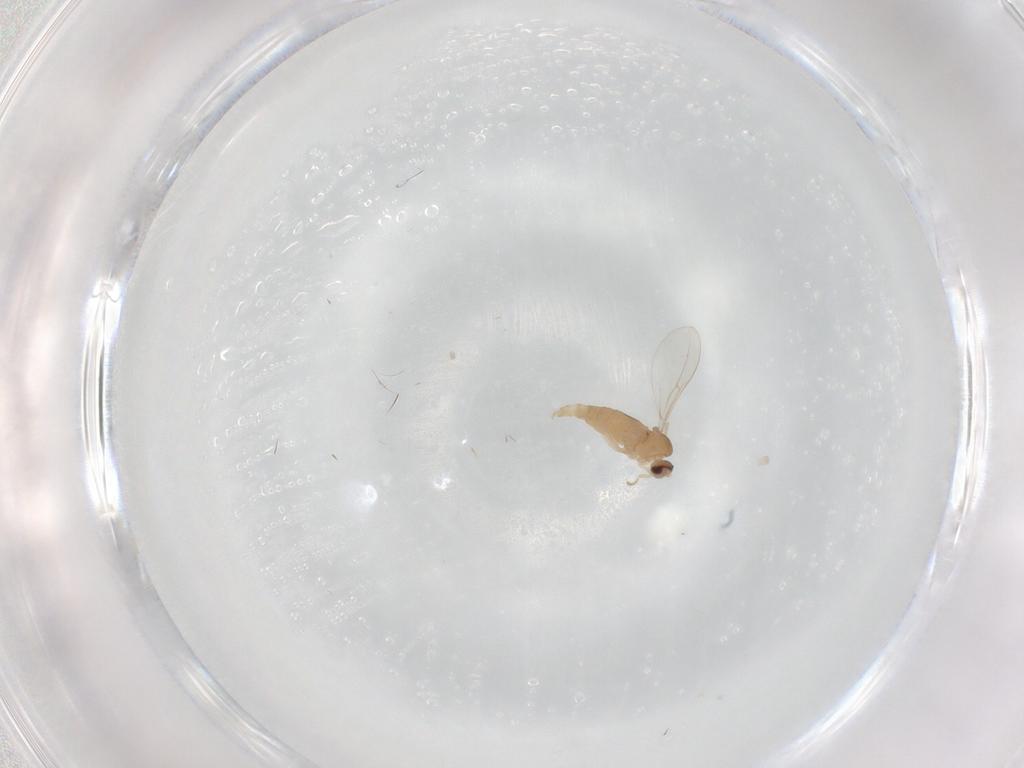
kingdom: Animalia
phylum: Arthropoda
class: Insecta
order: Diptera
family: Cecidomyiidae
